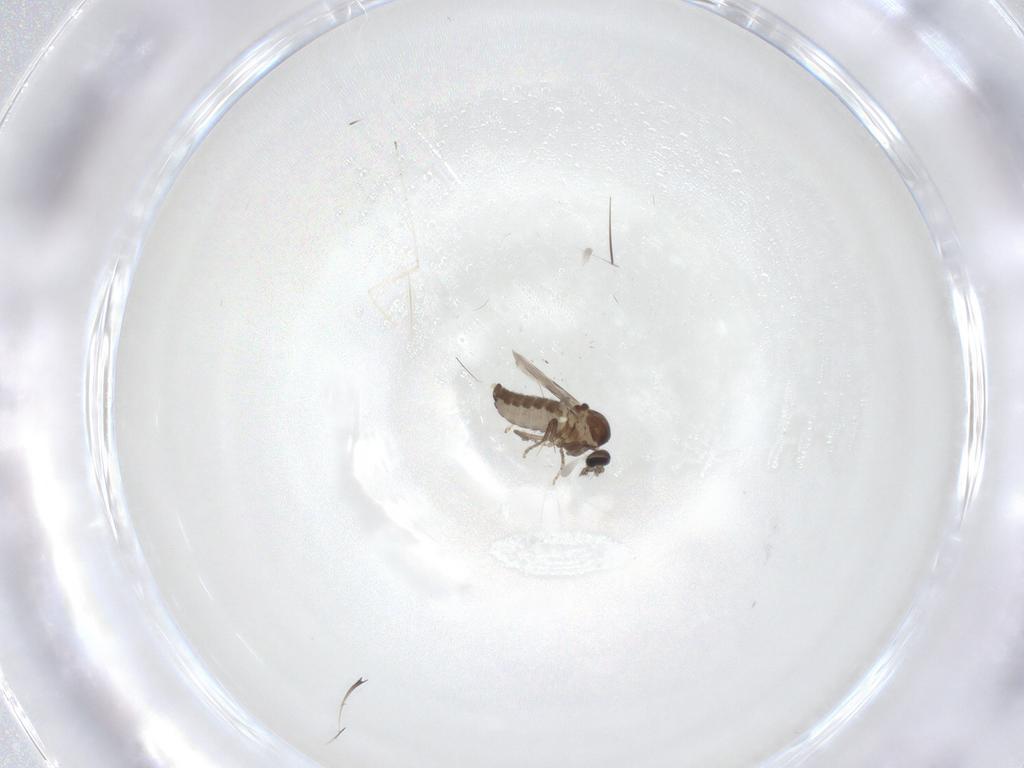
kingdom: Animalia
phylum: Arthropoda
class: Insecta
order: Diptera
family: Ceratopogonidae
